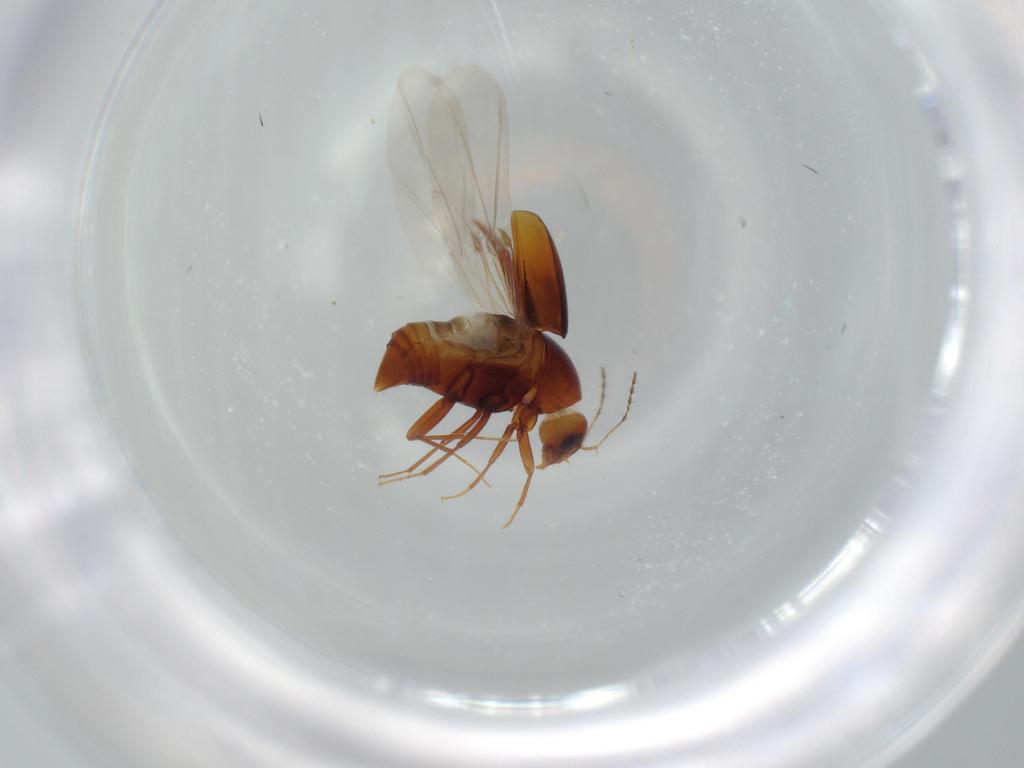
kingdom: Animalia
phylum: Arthropoda
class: Insecta
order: Coleoptera
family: Staphylinidae
